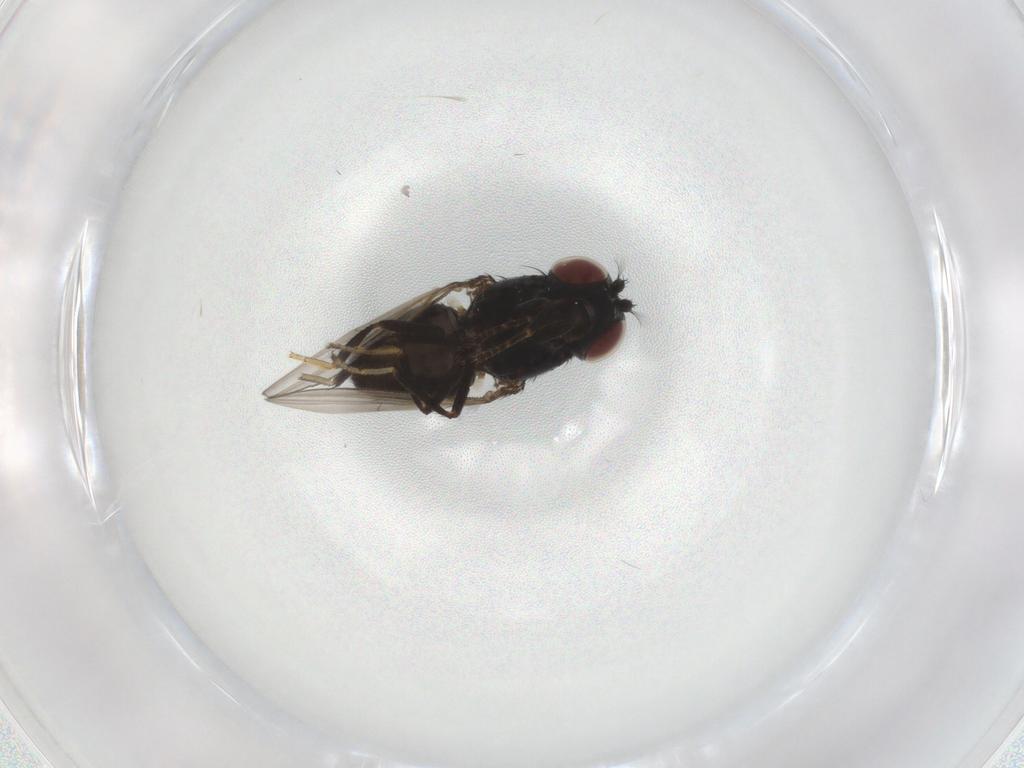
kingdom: Animalia
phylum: Arthropoda
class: Insecta
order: Diptera
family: Ephydridae
